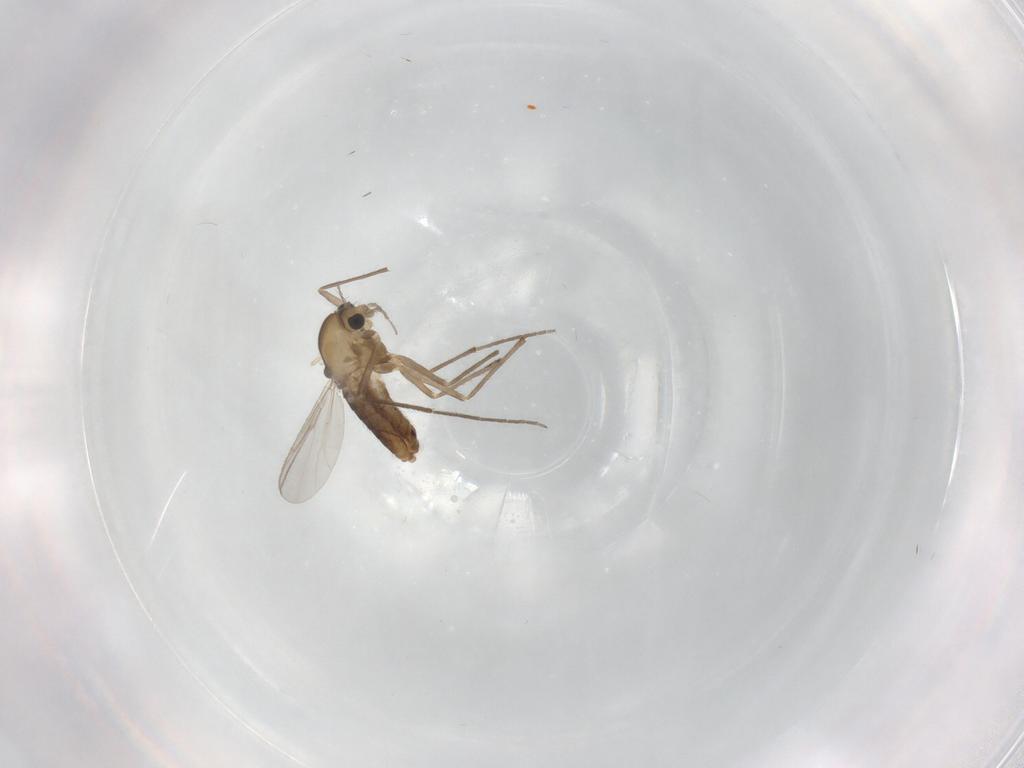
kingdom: Animalia
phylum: Arthropoda
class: Insecta
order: Diptera
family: Chironomidae
